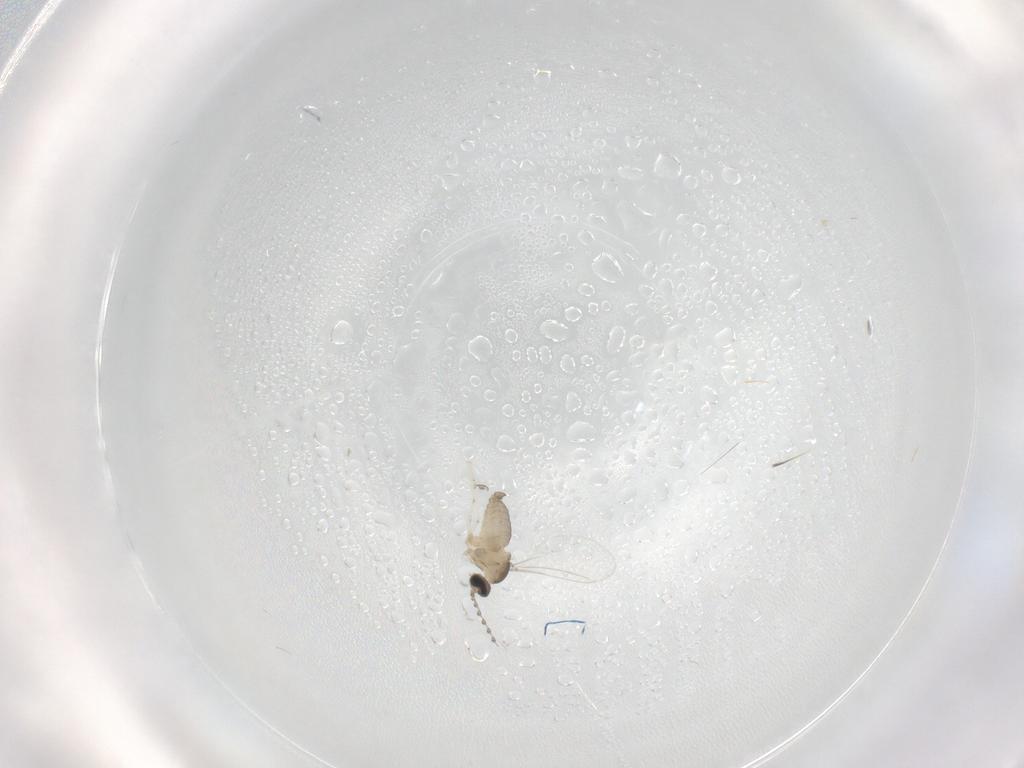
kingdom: Animalia
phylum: Arthropoda
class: Insecta
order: Diptera
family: Cecidomyiidae
